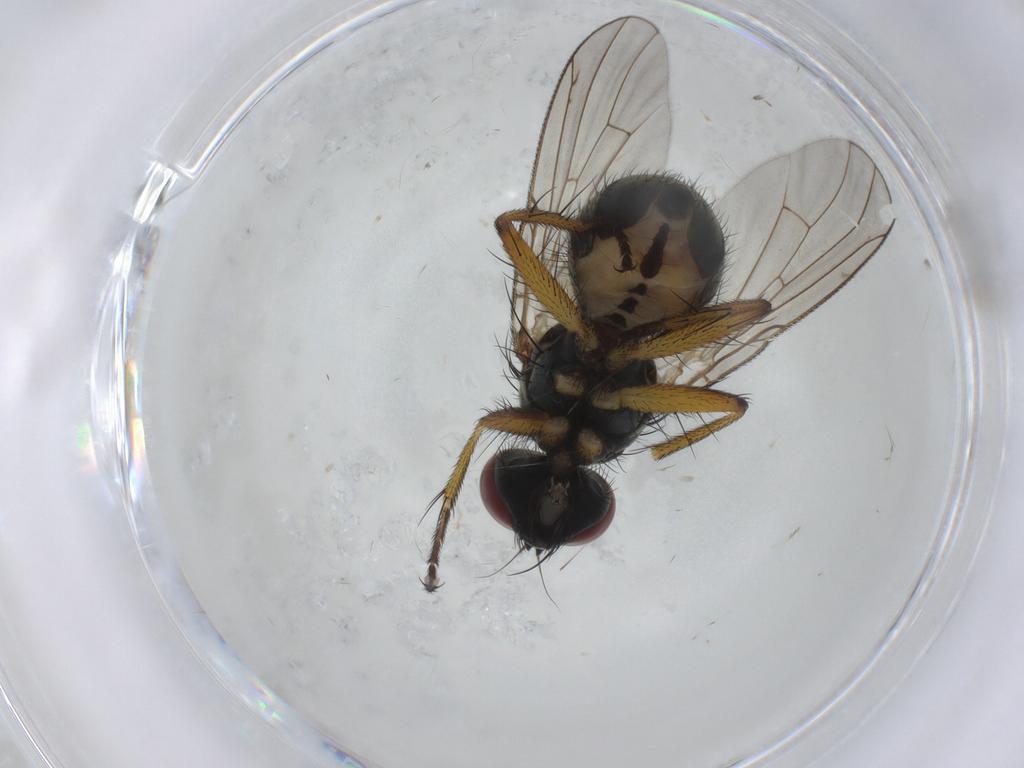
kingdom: Animalia
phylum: Arthropoda
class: Insecta
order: Diptera
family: Muscidae
